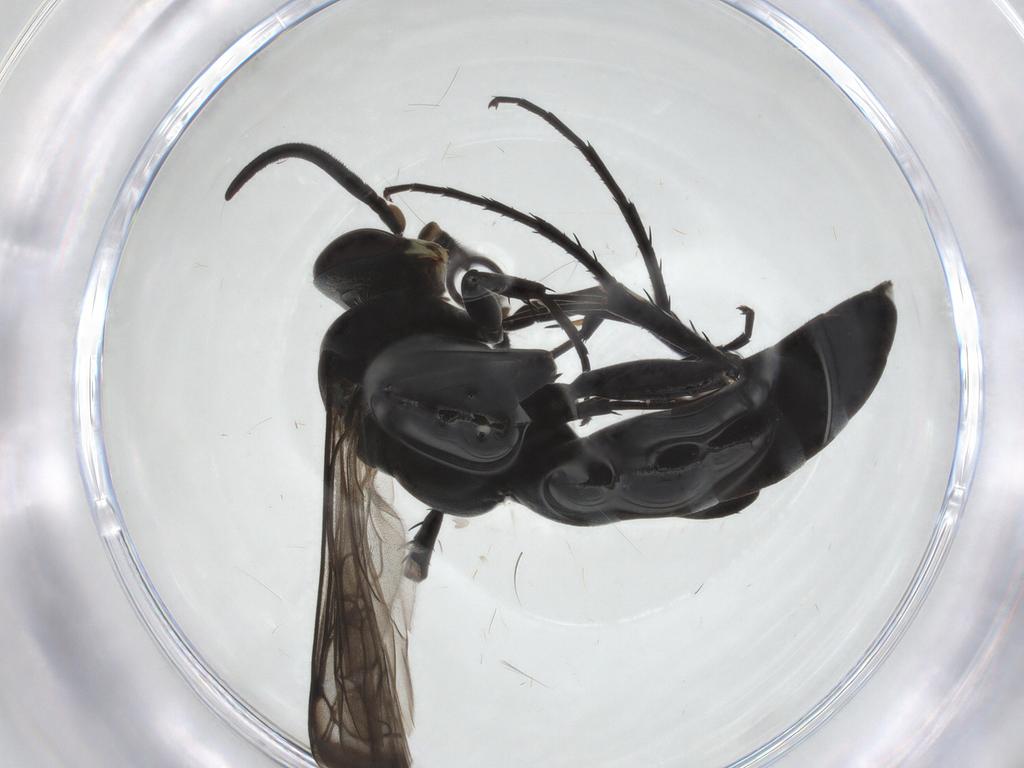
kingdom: Animalia
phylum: Arthropoda
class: Insecta
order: Hymenoptera
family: Pompilidae
